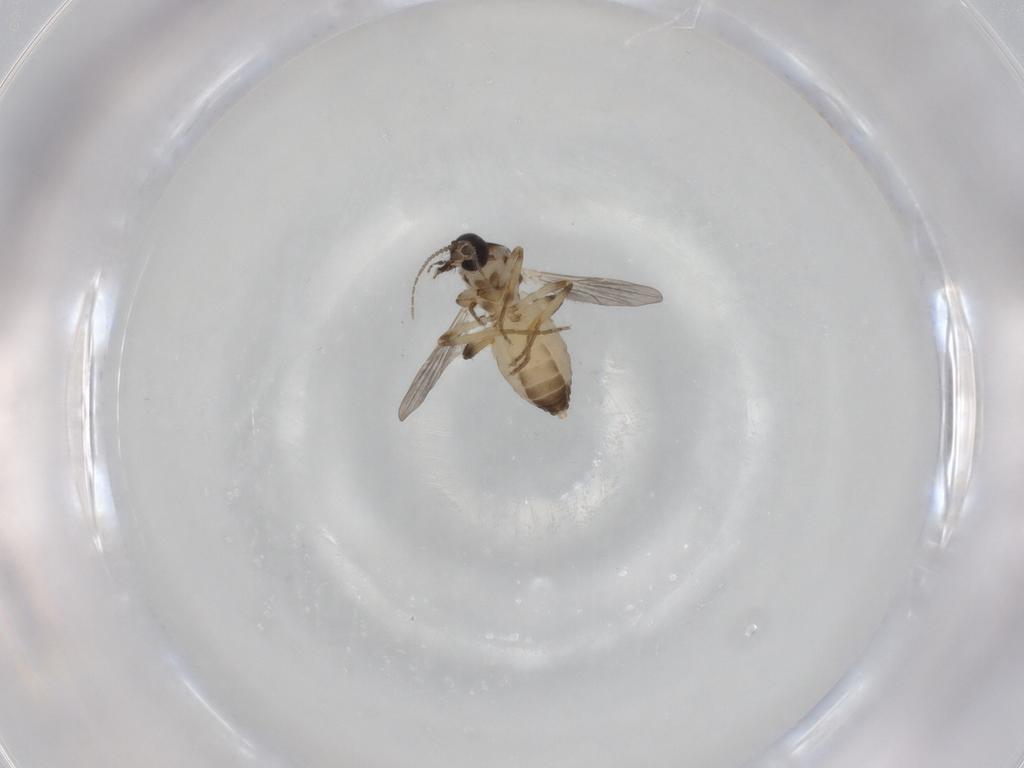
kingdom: Animalia
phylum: Arthropoda
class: Insecta
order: Diptera
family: Ceratopogonidae
